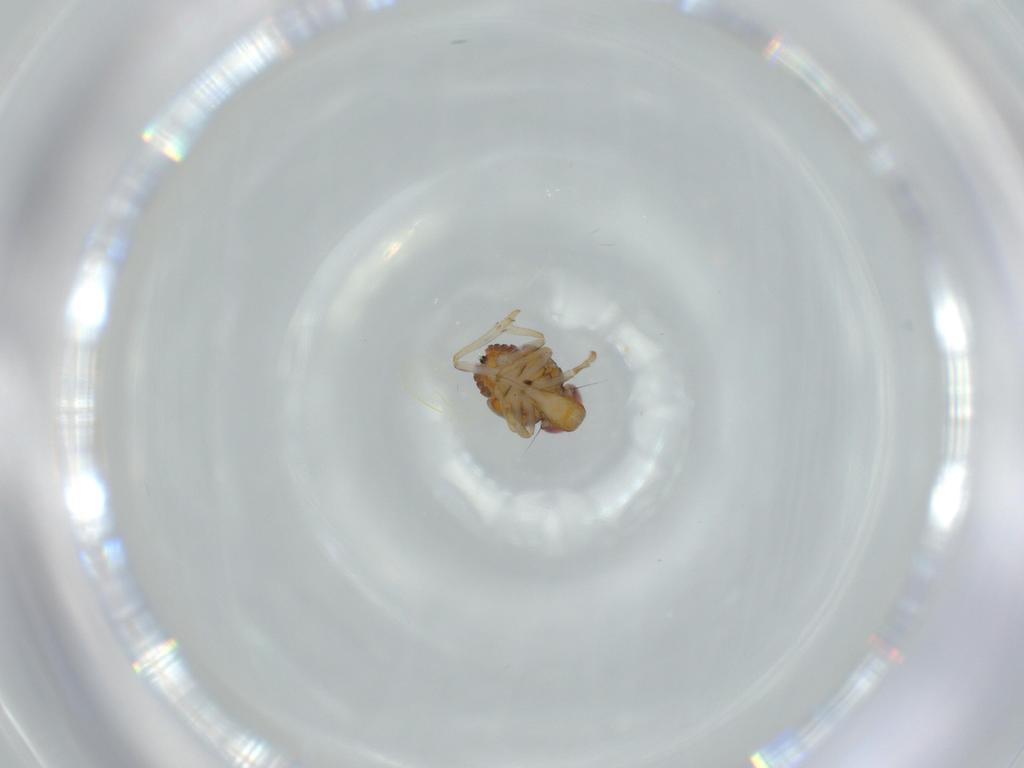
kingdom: Animalia
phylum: Arthropoda
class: Insecta
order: Hemiptera
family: Issidae
